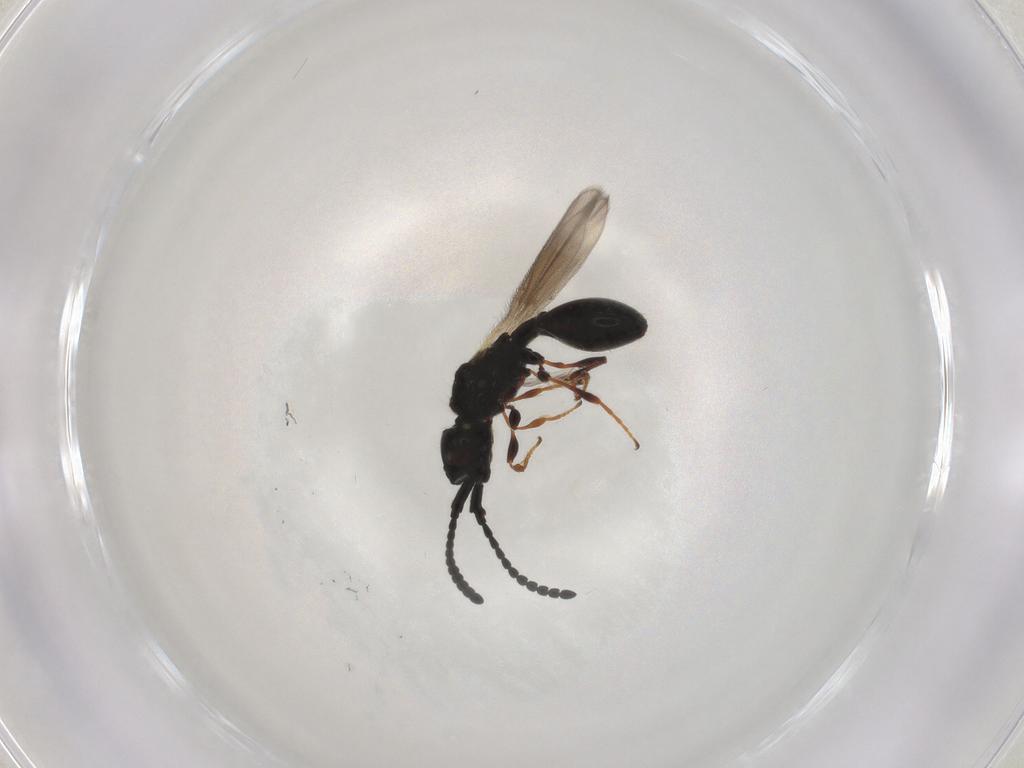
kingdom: Animalia
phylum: Arthropoda
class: Insecta
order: Hymenoptera
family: Diapriidae
